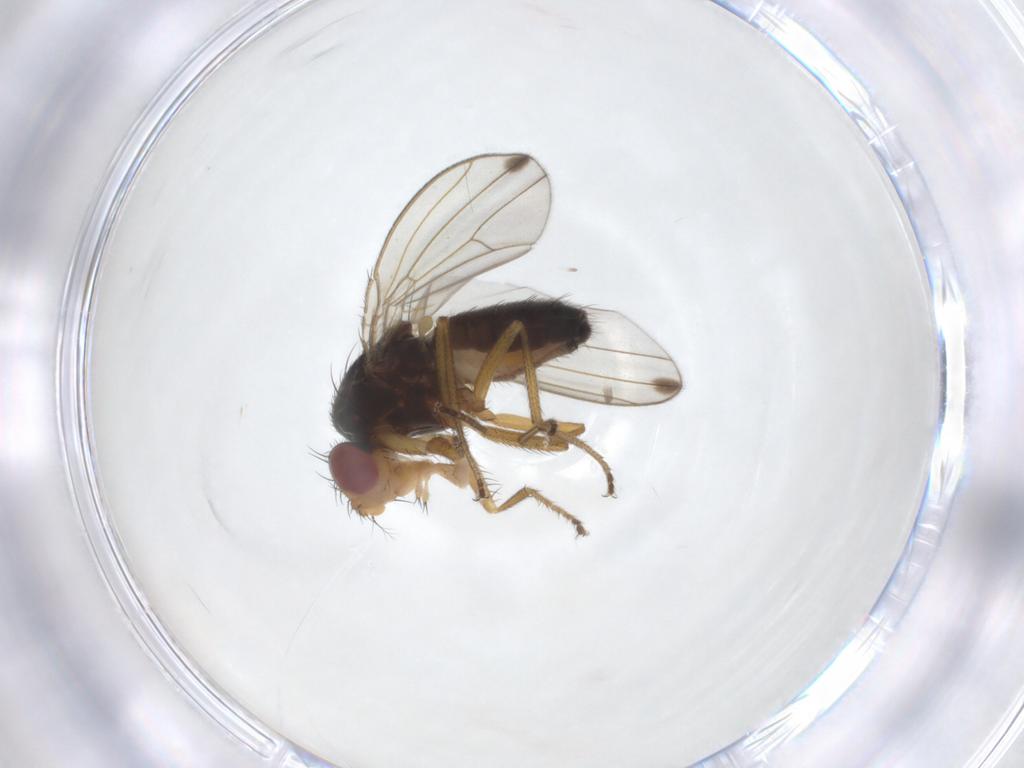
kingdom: Animalia
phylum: Arthropoda
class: Insecta
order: Diptera
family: Drosophilidae
